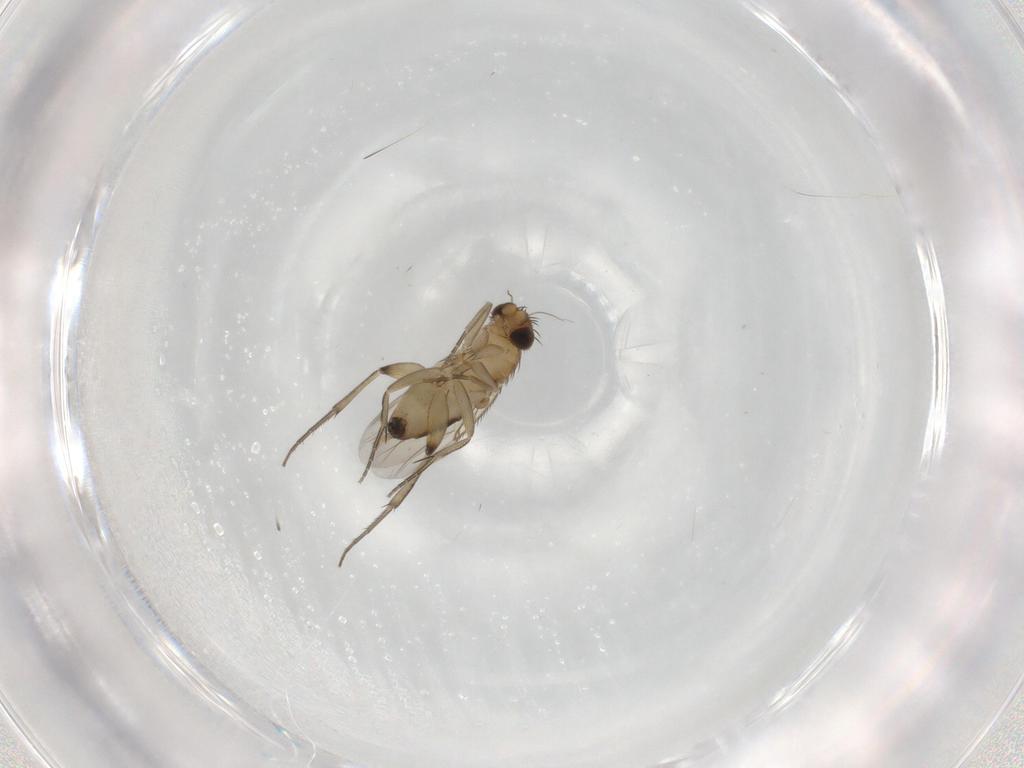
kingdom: Animalia
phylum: Arthropoda
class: Insecta
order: Diptera
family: Phoridae
